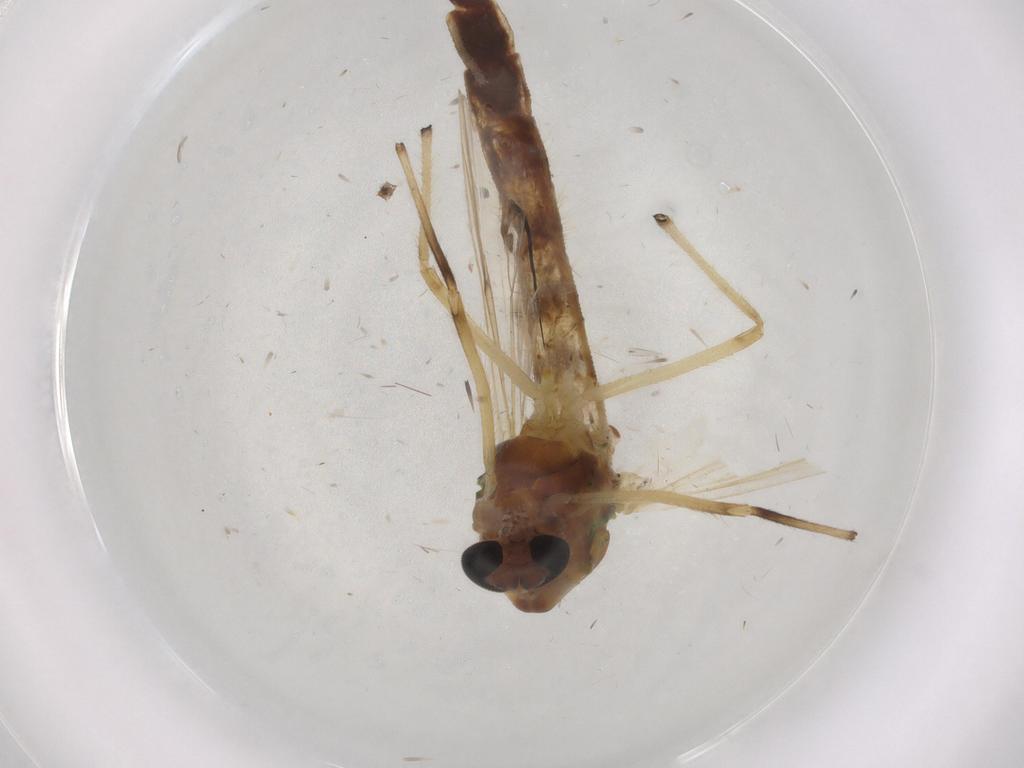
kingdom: Animalia
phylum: Arthropoda
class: Insecta
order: Diptera
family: Chironomidae
